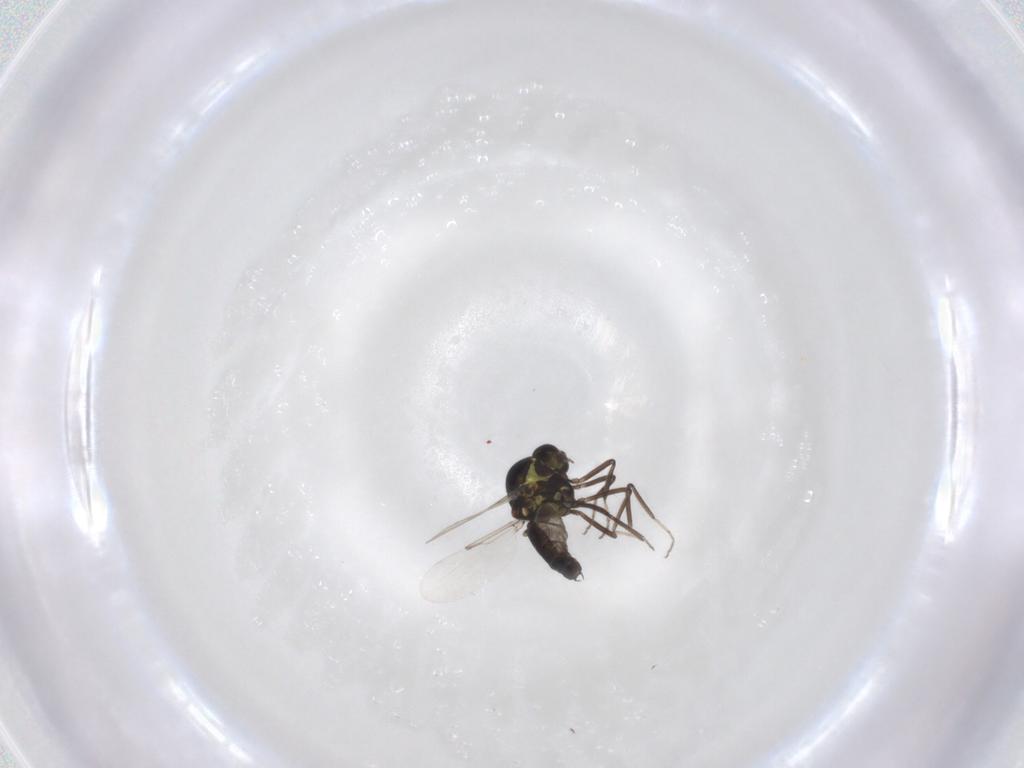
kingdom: Animalia
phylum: Arthropoda
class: Insecta
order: Diptera
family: Ceratopogonidae
